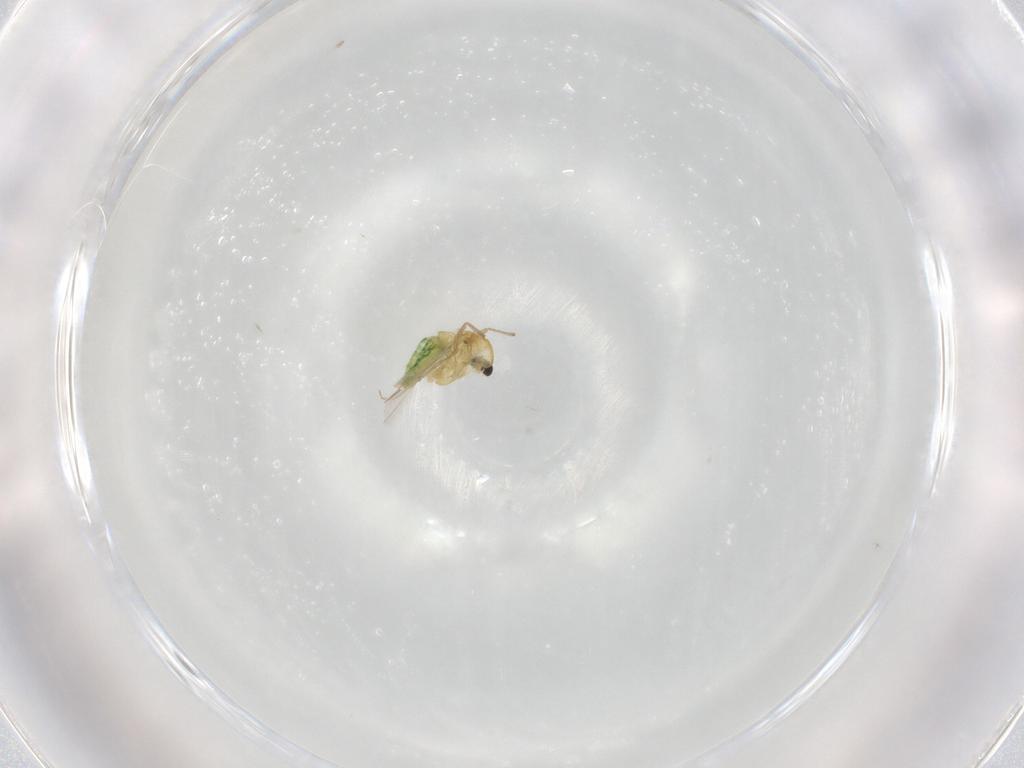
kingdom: Animalia
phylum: Arthropoda
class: Insecta
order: Diptera
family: Chironomidae
